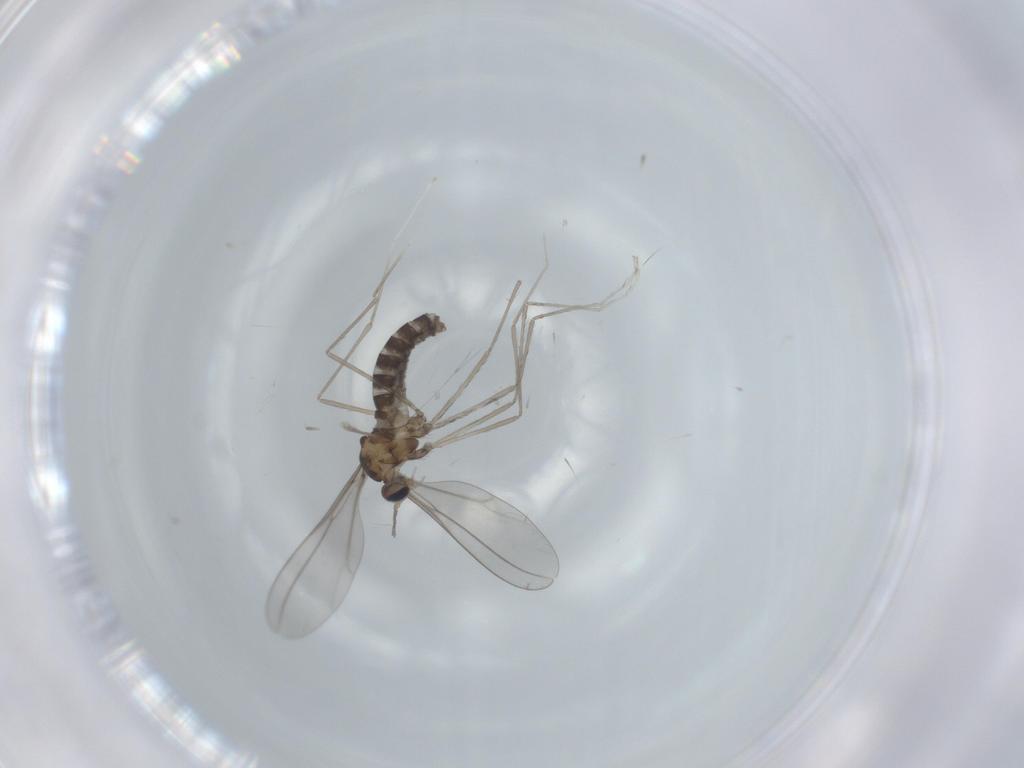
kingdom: Animalia
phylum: Arthropoda
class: Insecta
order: Diptera
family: Cecidomyiidae
